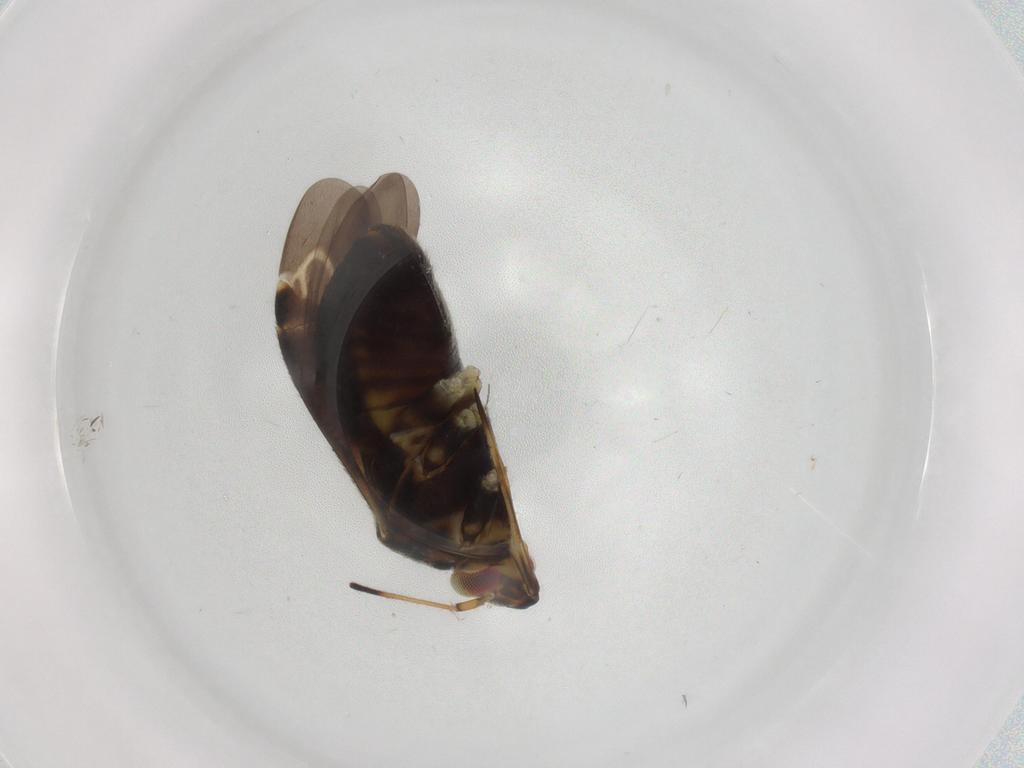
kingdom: Animalia
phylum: Arthropoda
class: Insecta
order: Hemiptera
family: Miridae
